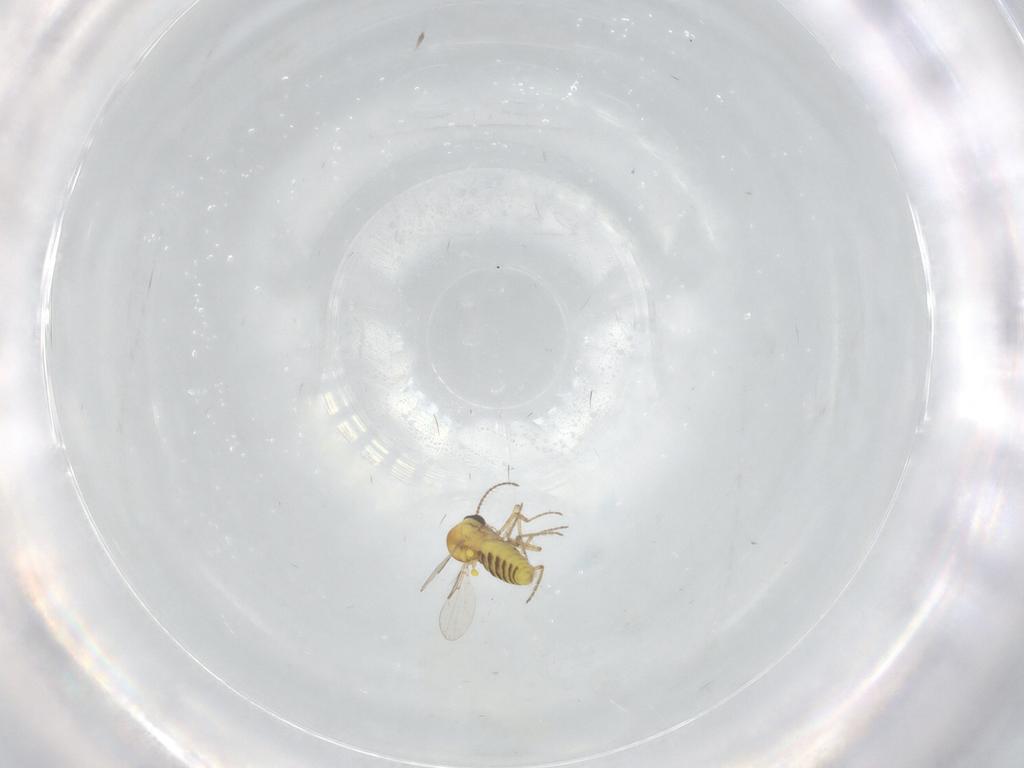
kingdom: Animalia
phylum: Arthropoda
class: Insecta
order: Diptera
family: Ceratopogonidae
